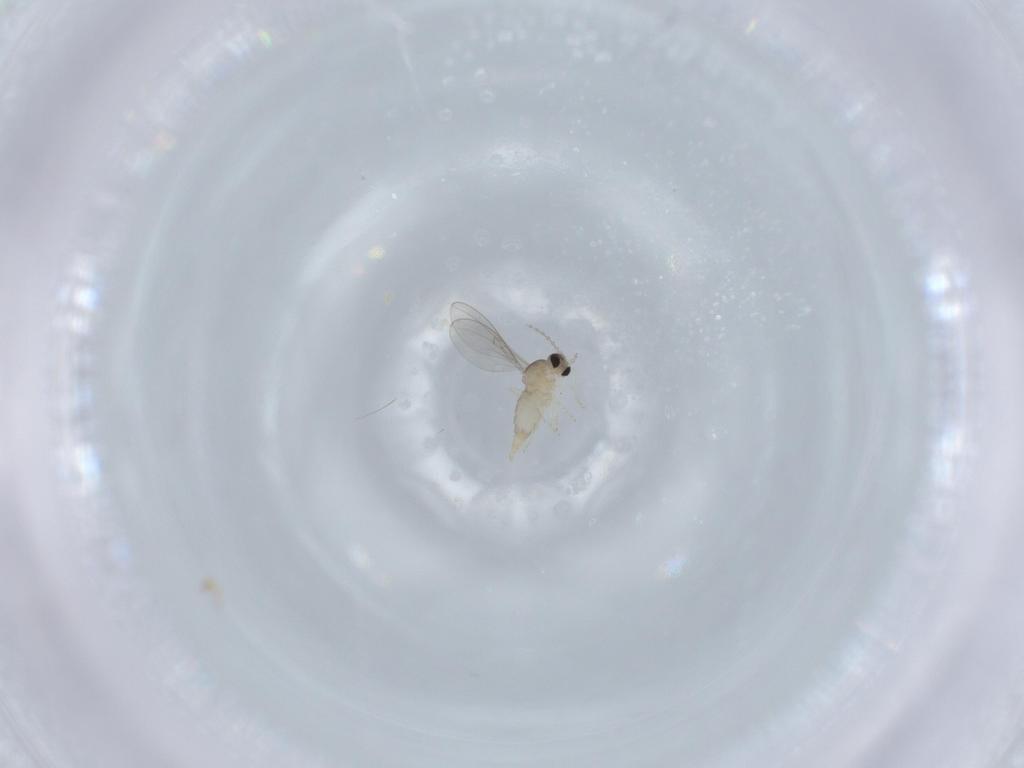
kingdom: Animalia
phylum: Arthropoda
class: Insecta
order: Diptera
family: Cecidomyiidae
